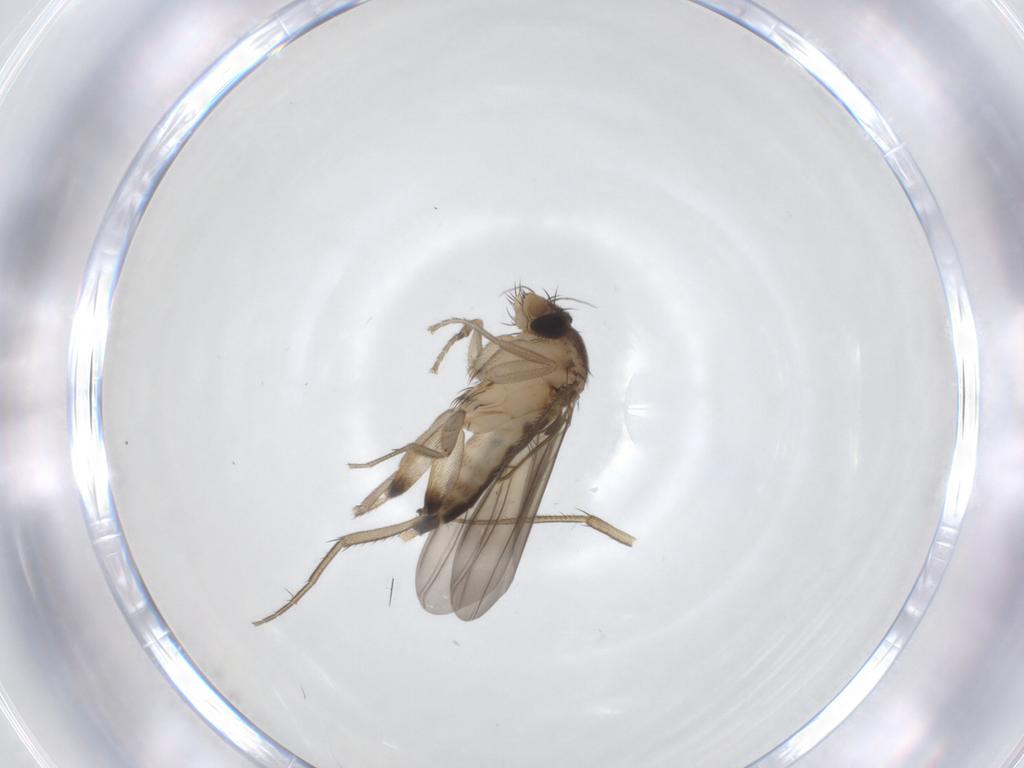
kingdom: Animalia
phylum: Arthropoda
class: Insecta
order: Diptera
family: Phoridae
